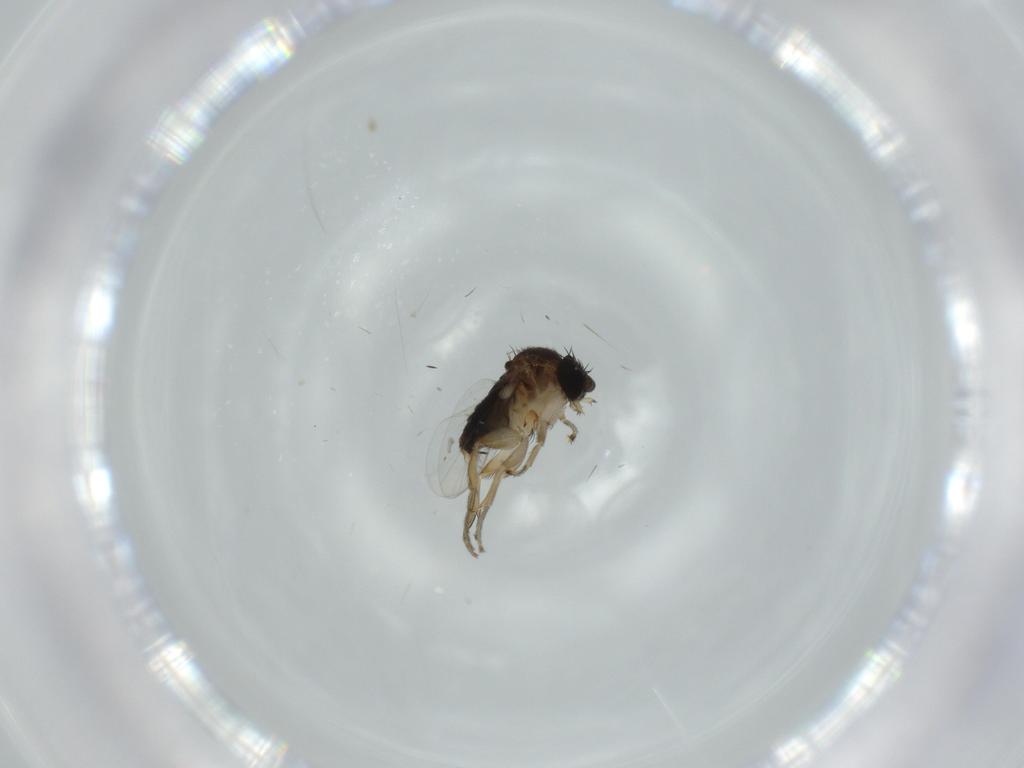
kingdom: Animalia
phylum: Arthropoda
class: Insecta
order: Diptera
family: Phoridae
